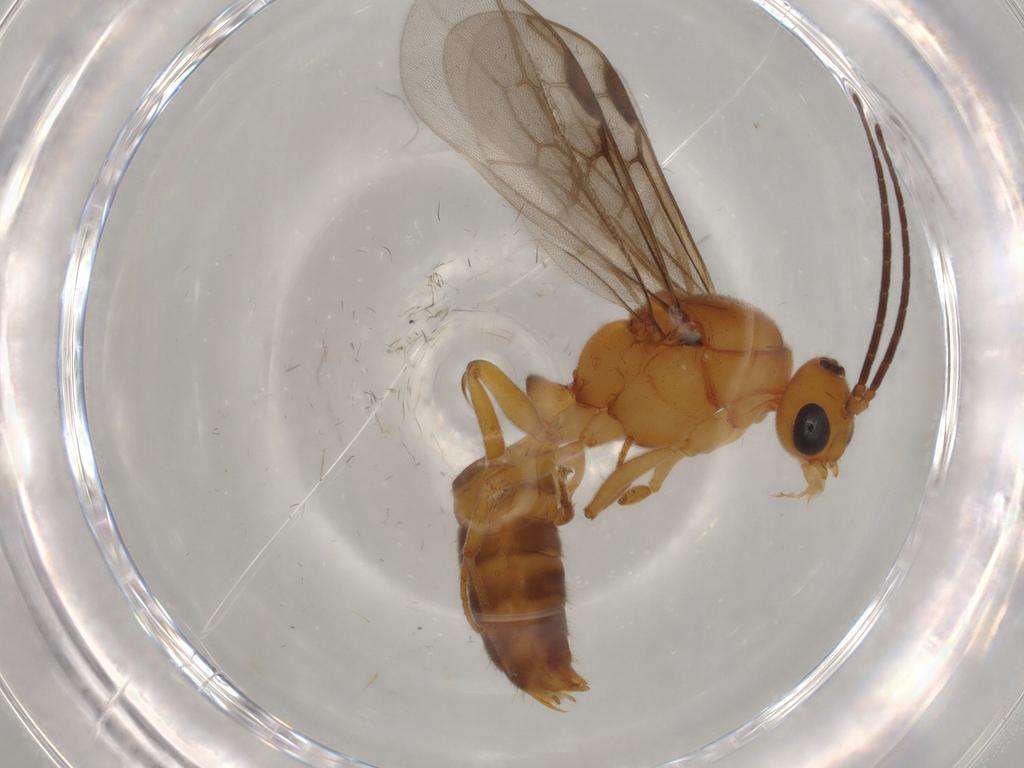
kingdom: Animalia
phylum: Arthropoda
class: Insecta
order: Hymenoptera
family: Formicidae
